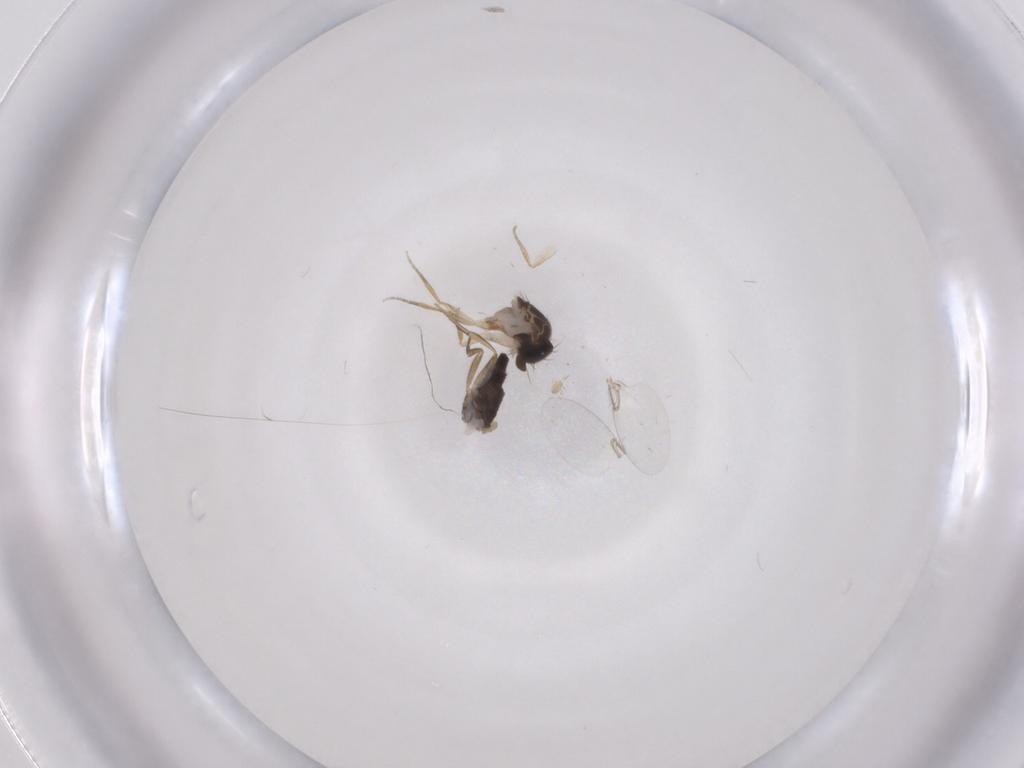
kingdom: Animalia
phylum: Arthropoda
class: Insecta
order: Diptera
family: Phoridae
